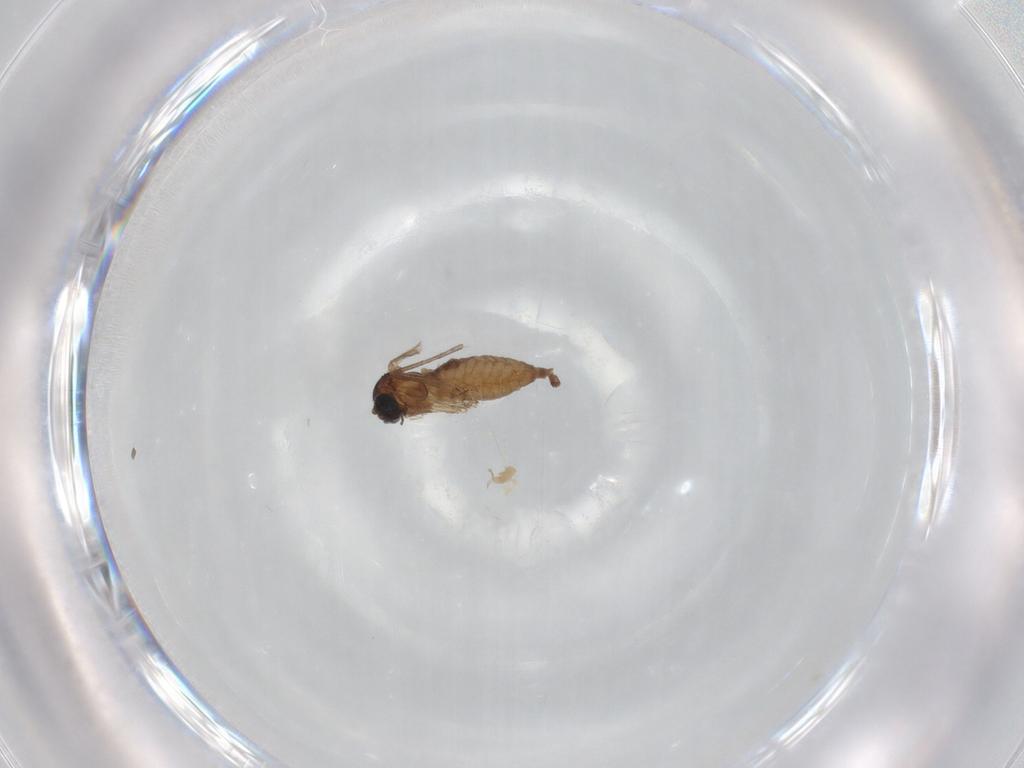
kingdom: Animalia
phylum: Arthropoda
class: Insecta
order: Diptera
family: Glossinidae
